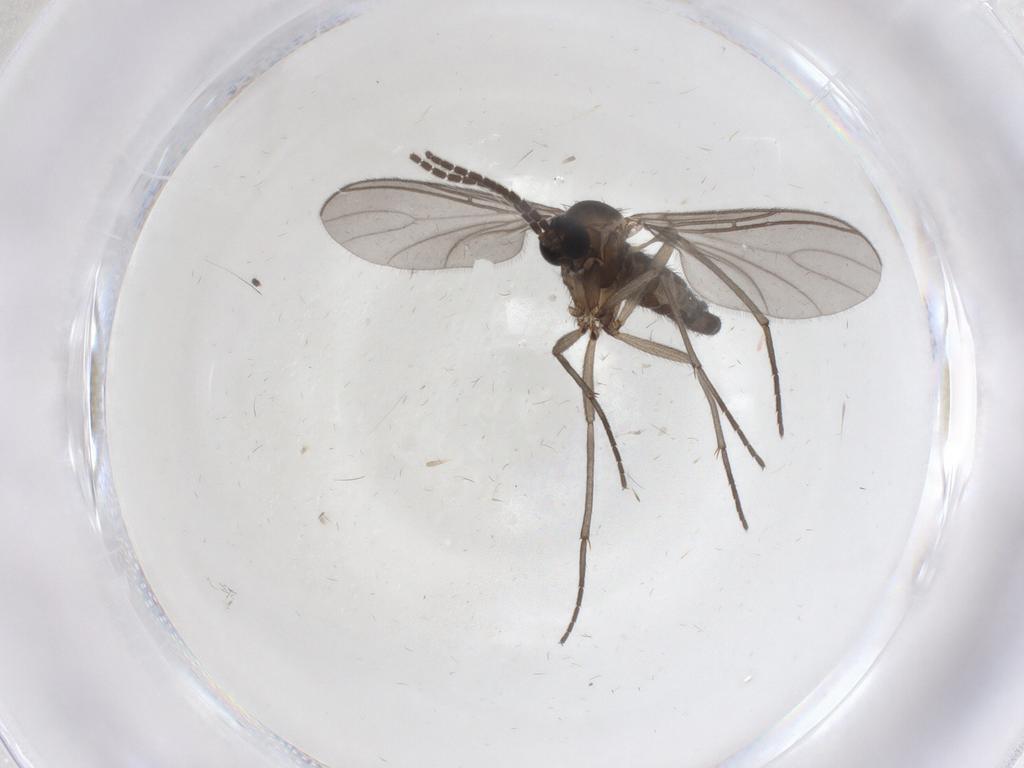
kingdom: Animalia
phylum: Arthropoda
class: Insecta
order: Diptera
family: Sciaridae
